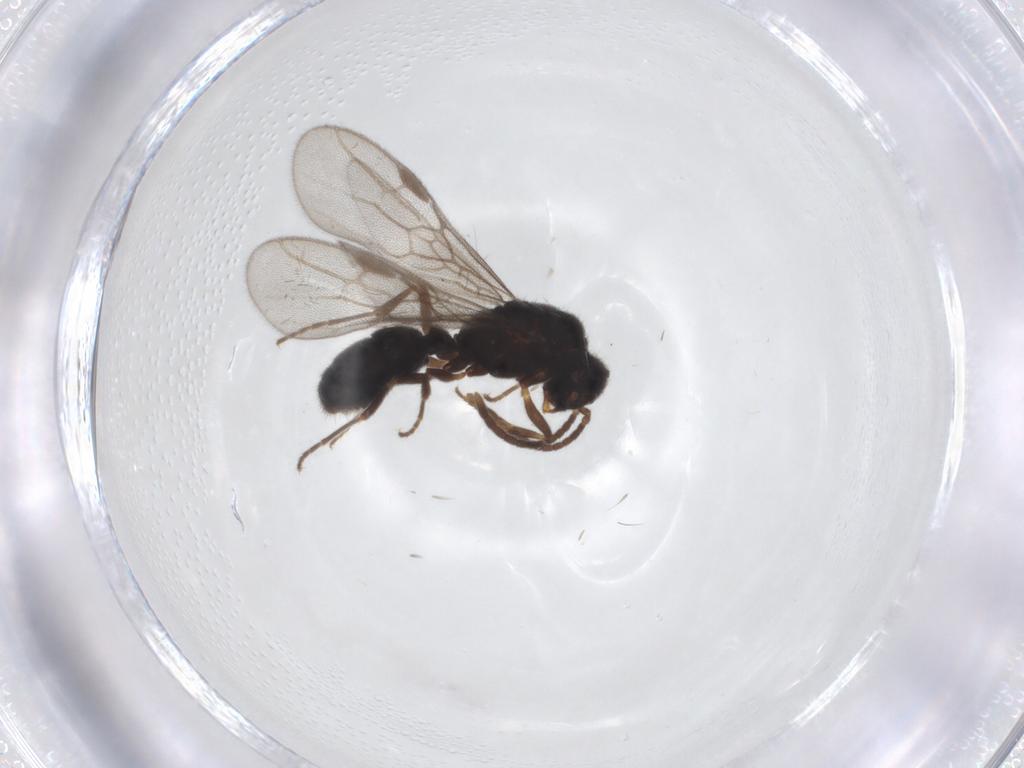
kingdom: Animalia
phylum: Arthropoda
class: Insecta
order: Hymenoptera
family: Formicidae
